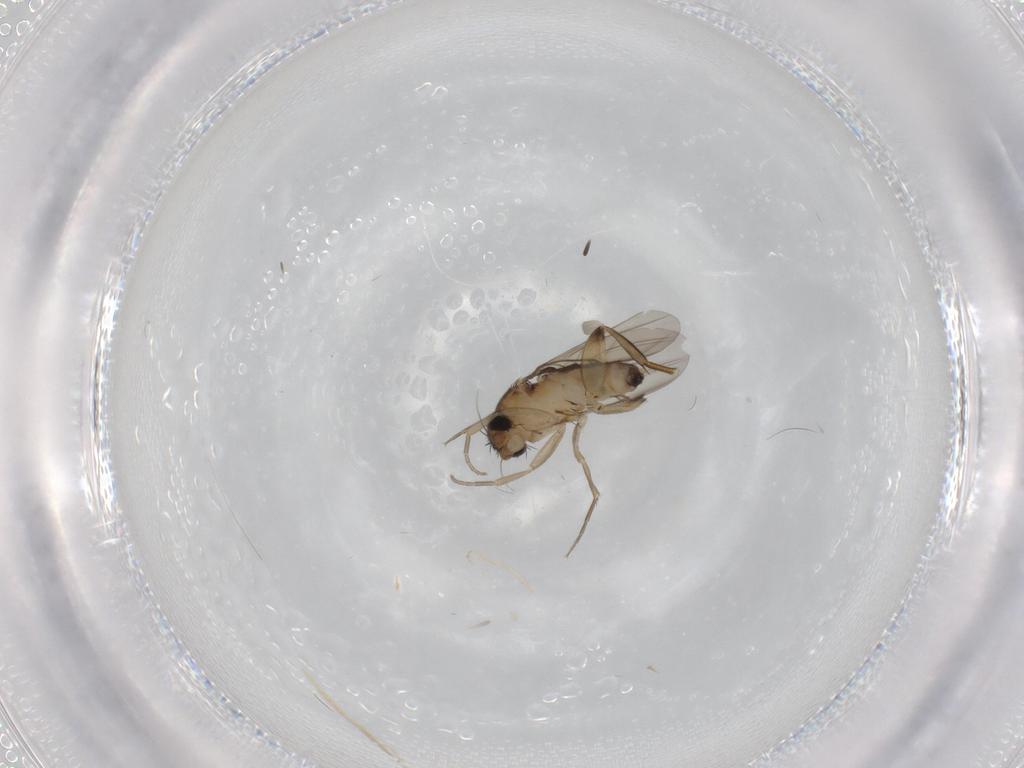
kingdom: Animalia
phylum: Arthropoda
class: Insecta
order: Diptera
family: Phoridae
